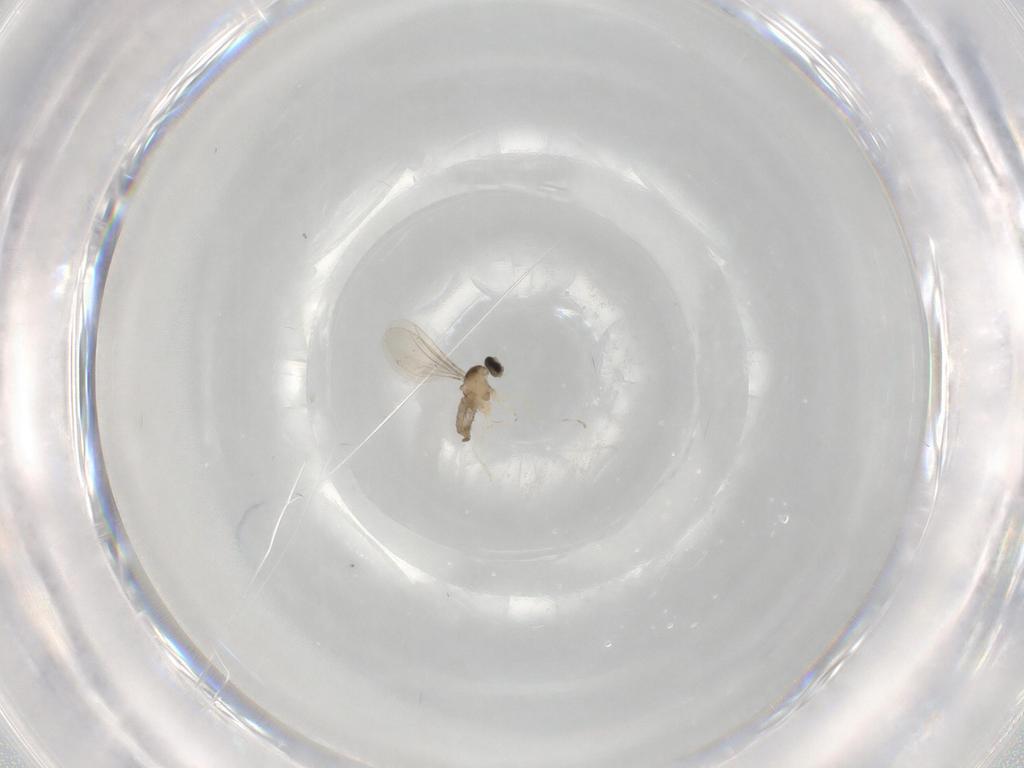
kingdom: Animalia
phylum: Arthropoda
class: Insecta
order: Diptera
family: Cecidomyiidae
